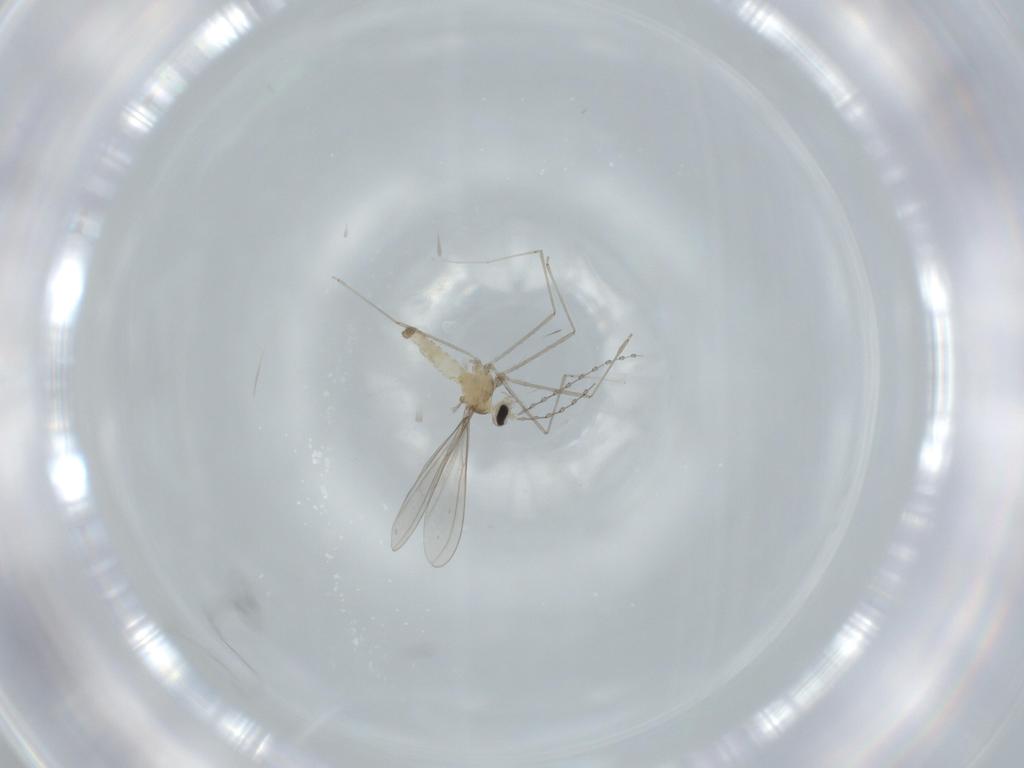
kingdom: Animalia
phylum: Arthropoda
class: Insecta
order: Diptera
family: Cecidomyiidae
